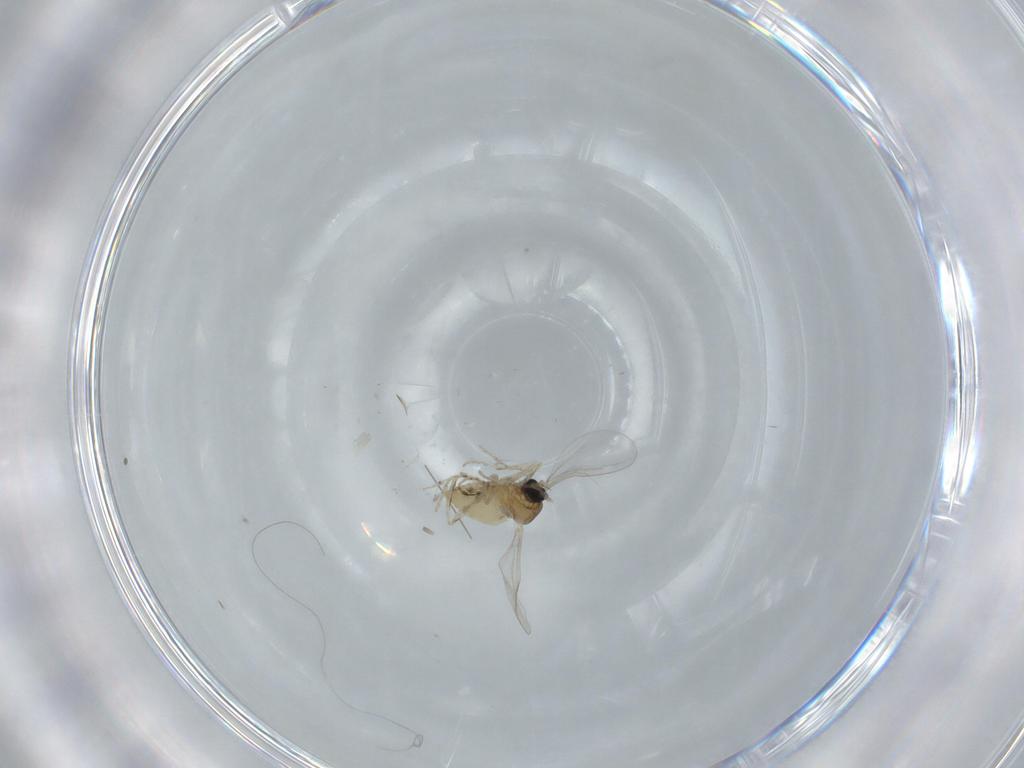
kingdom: Animalia
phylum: Arthropoda
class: Insecta
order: Diptera
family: Cecidomyiidae
